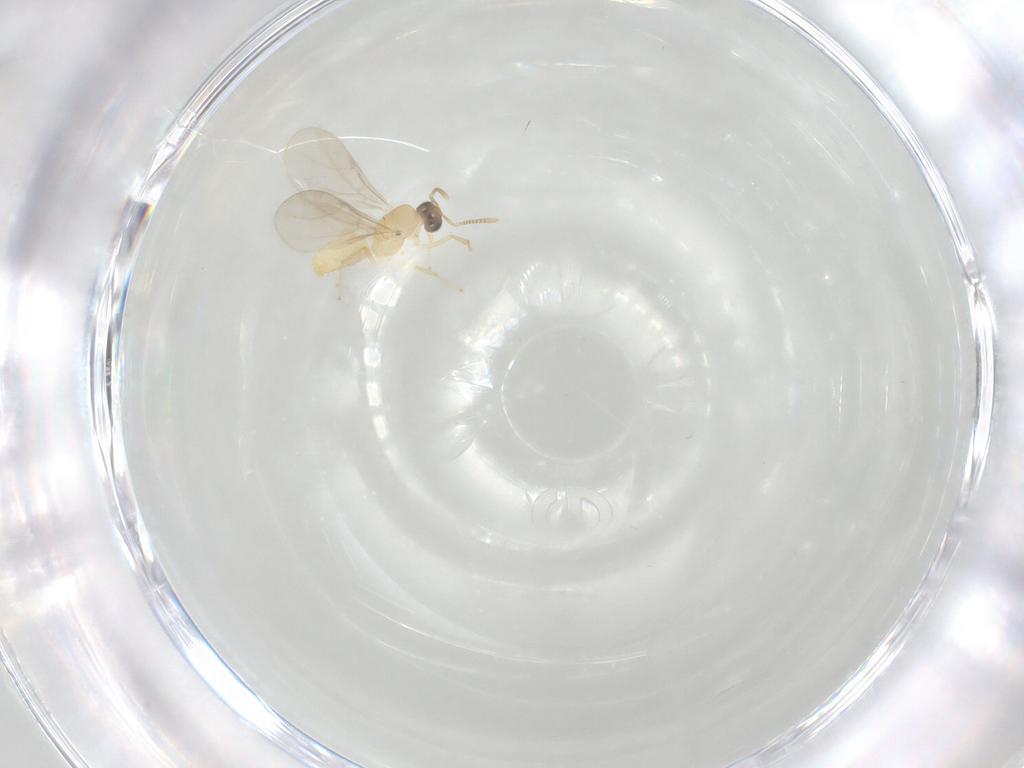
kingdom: Animalia
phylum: Arthropoda
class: Insecta
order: Hymenoptera
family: Formicidae
